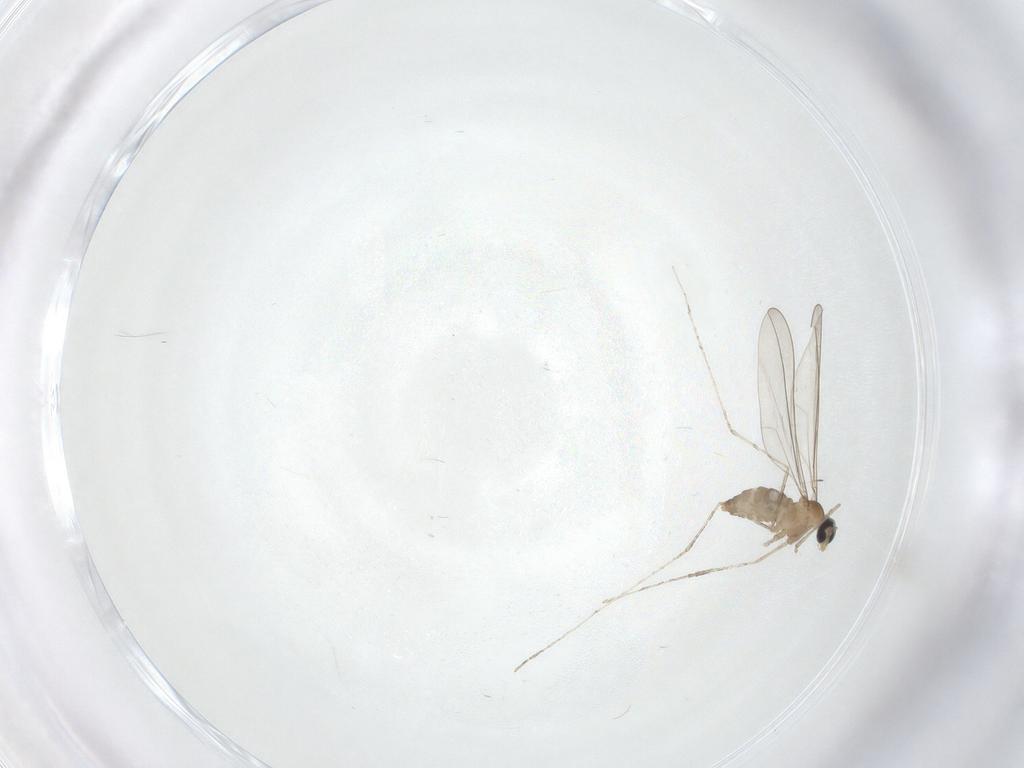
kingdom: Animalia
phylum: Arthropoda
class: Insecta
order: Diptera
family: Cecidomyiidae
